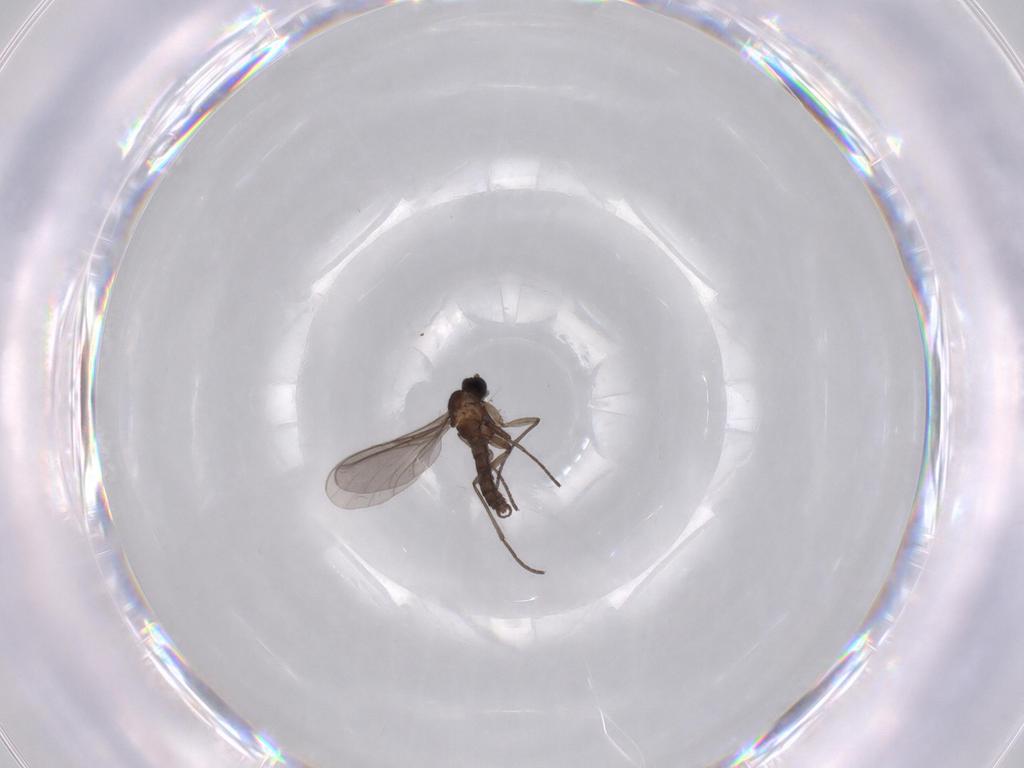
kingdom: Animalia
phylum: Arthropoda
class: Insecta
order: Diptera
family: Sciaridae
